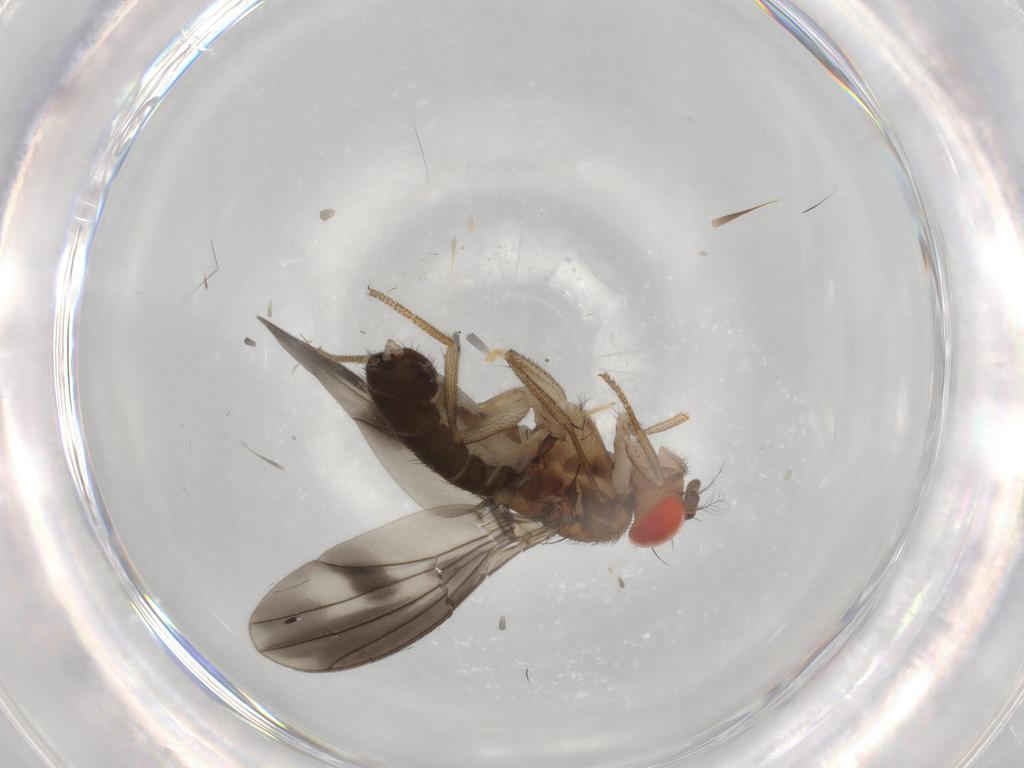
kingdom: Animalia
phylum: Arthropoda
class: Insecta
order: Diptera
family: Drosophilidae
